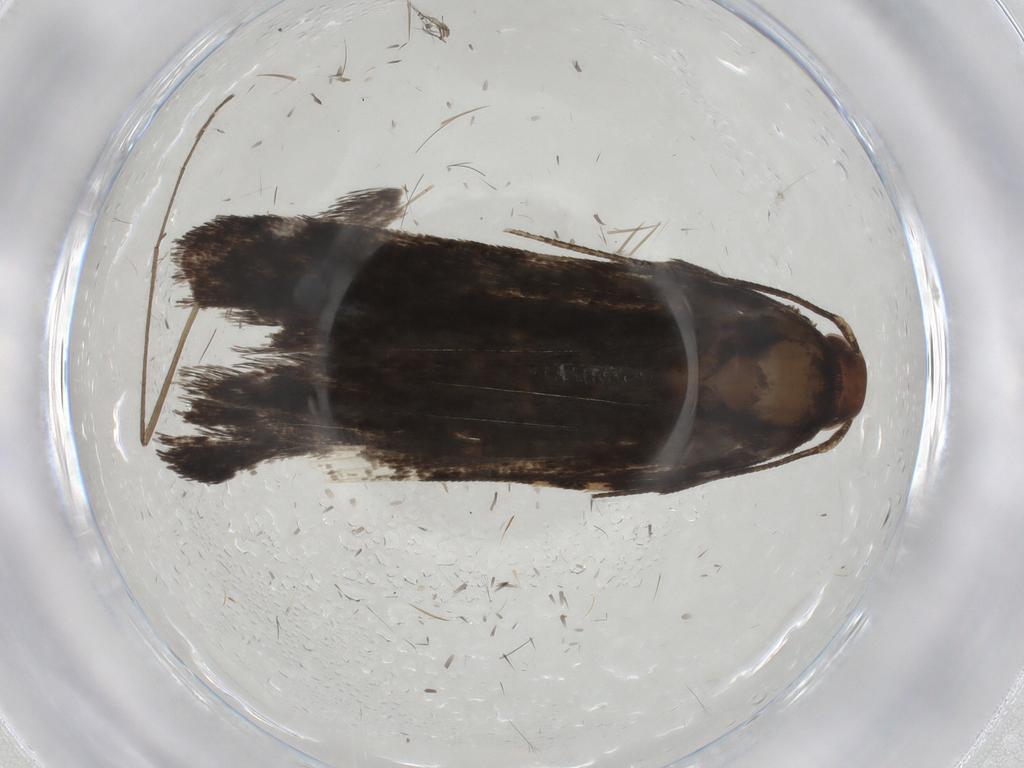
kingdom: Animalia
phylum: Arthropoda
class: Insecta
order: Lepidoptera
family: Gelechiidae
